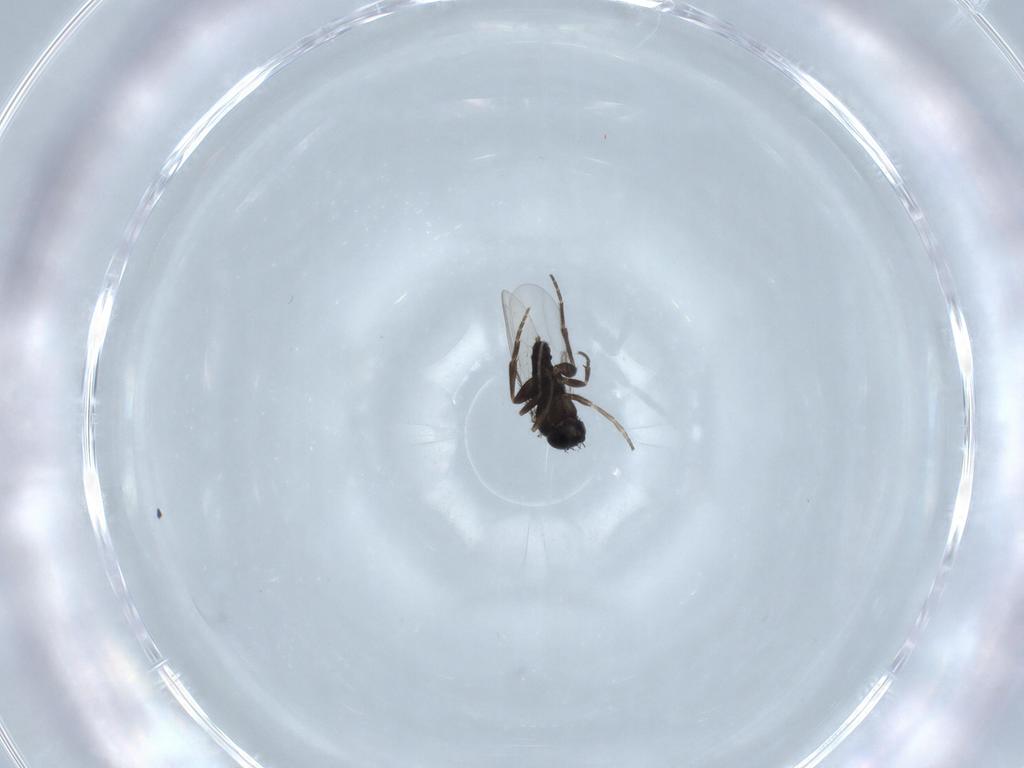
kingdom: Animalia
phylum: Arthropoda
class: Insecta
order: Diptera
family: Phoridae
